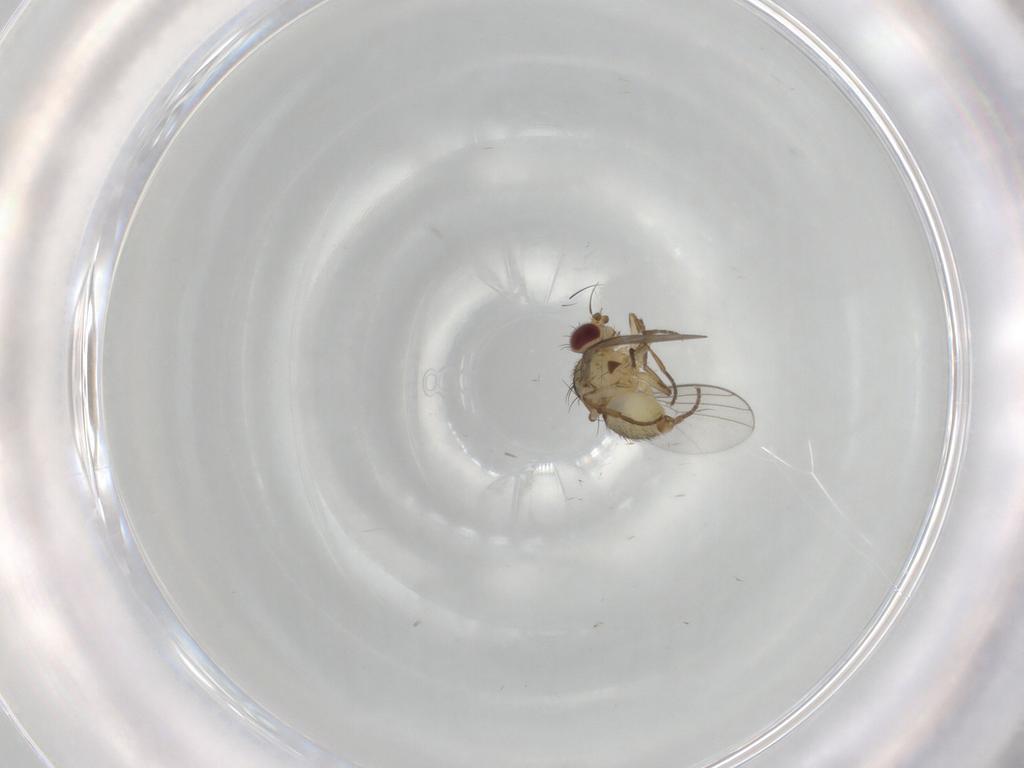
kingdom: Animalia
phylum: Arthropoda
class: Insecta
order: Diptera
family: Agromyzidae
